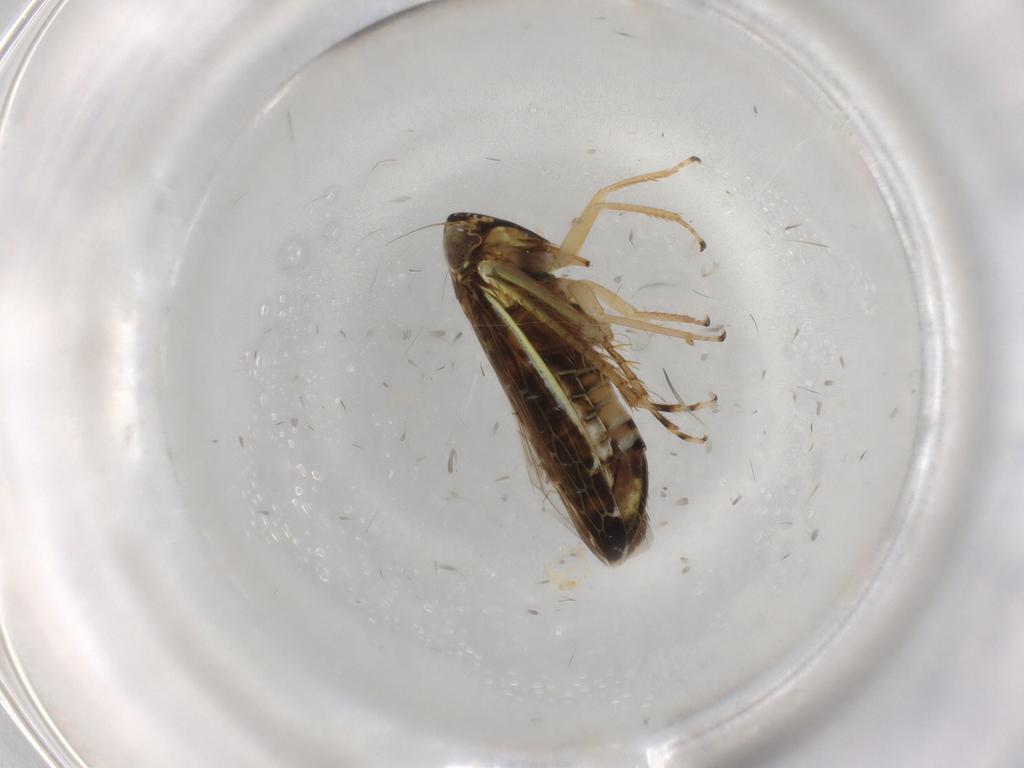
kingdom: Animalia
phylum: Arthropoda
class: Insecta
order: Hemiptera
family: Cicadellidae
